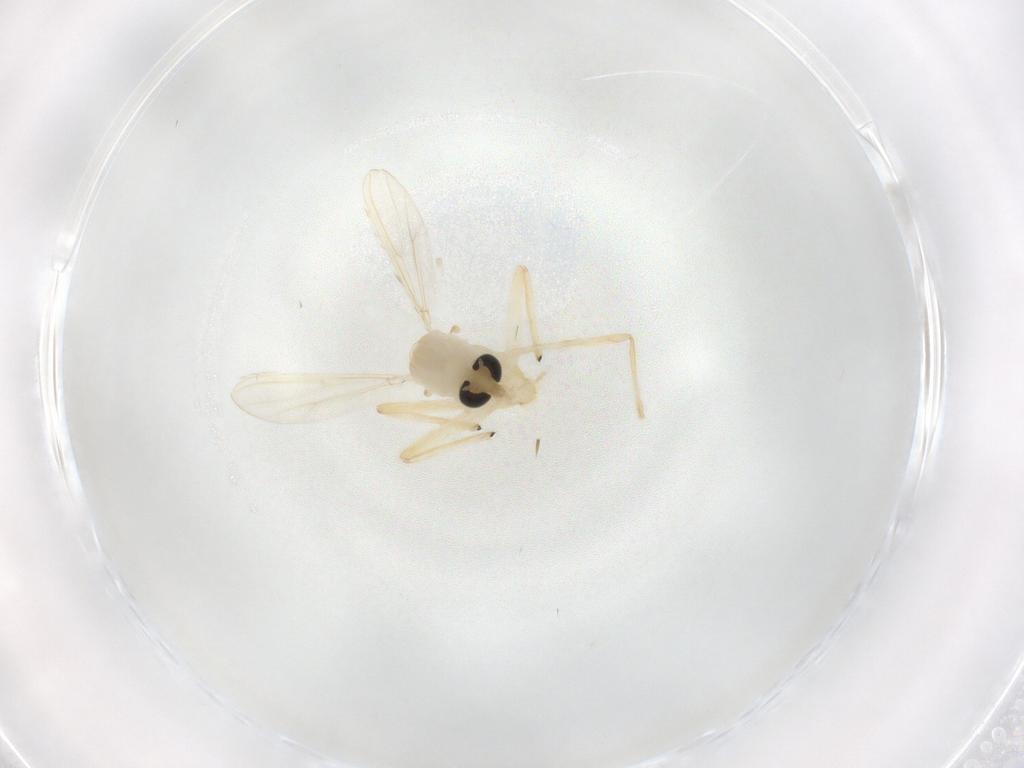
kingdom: Animalia
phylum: Arthropoda
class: Insecta
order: Diptera
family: Chironomidae
